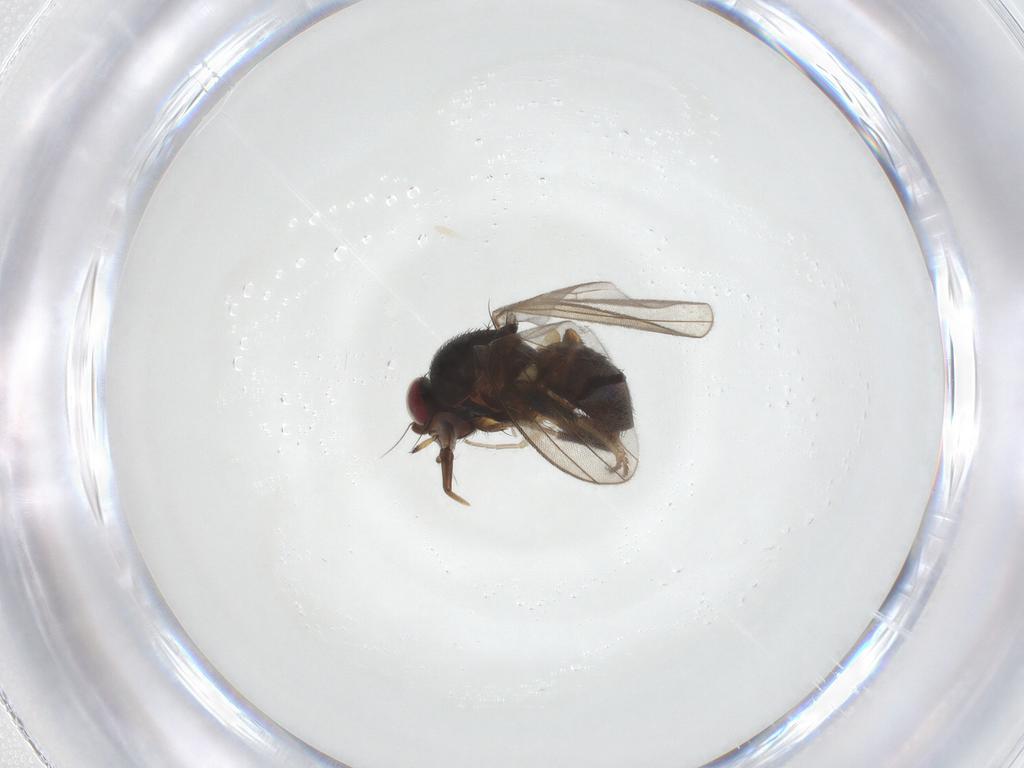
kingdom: Animalia
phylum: Arthropoda
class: Insecta
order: Diptera
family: Milichiidae
